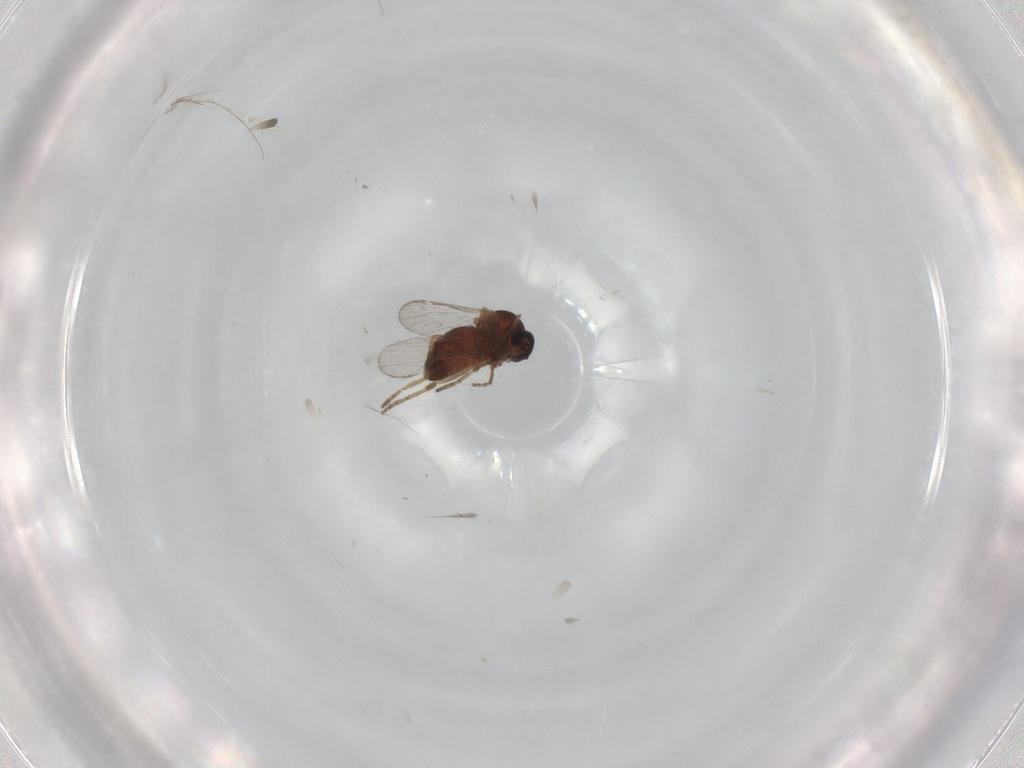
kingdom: Animalia
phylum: Arthropoda
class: Insecta
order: Diptera
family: Ceratopogonidae
